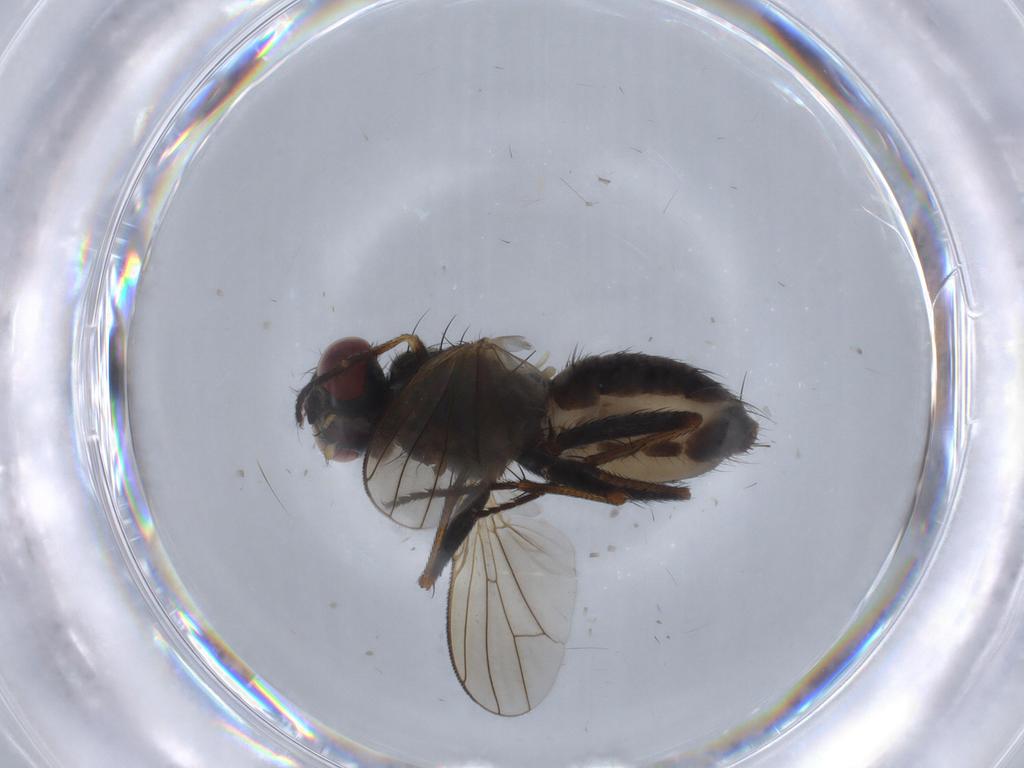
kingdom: Animalia
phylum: Arthropoda
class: Insecta
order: Diptera
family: Muscidae
